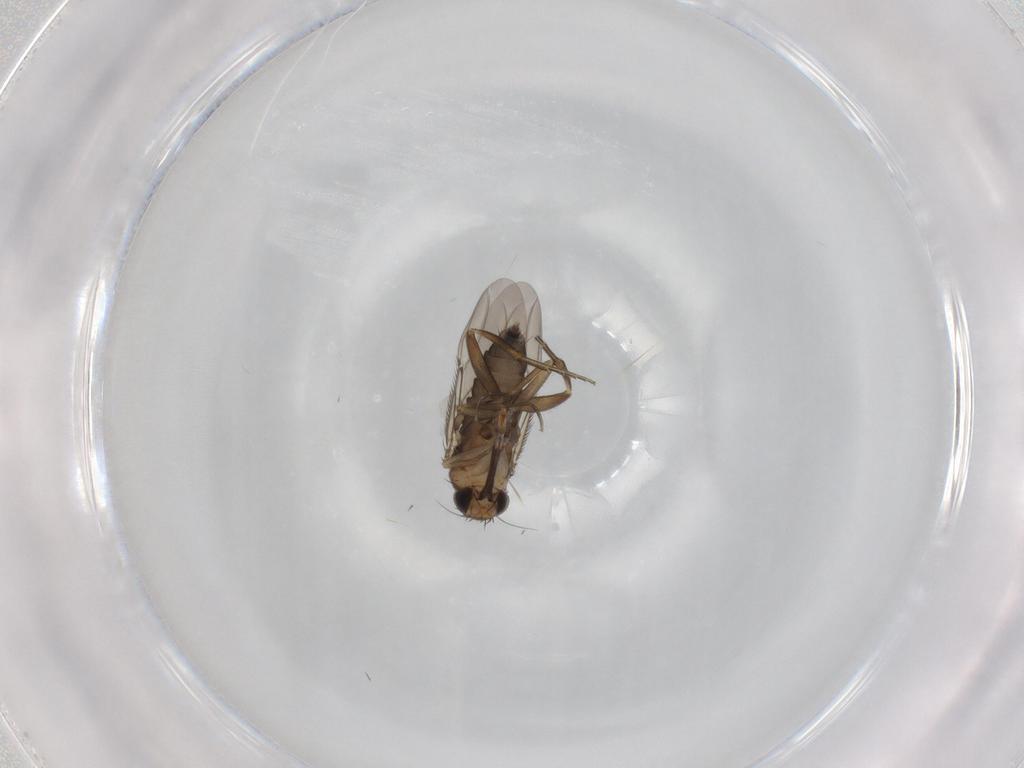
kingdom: Animalia
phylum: Arthropoda
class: Insecta
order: Diptera
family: Phoridae
